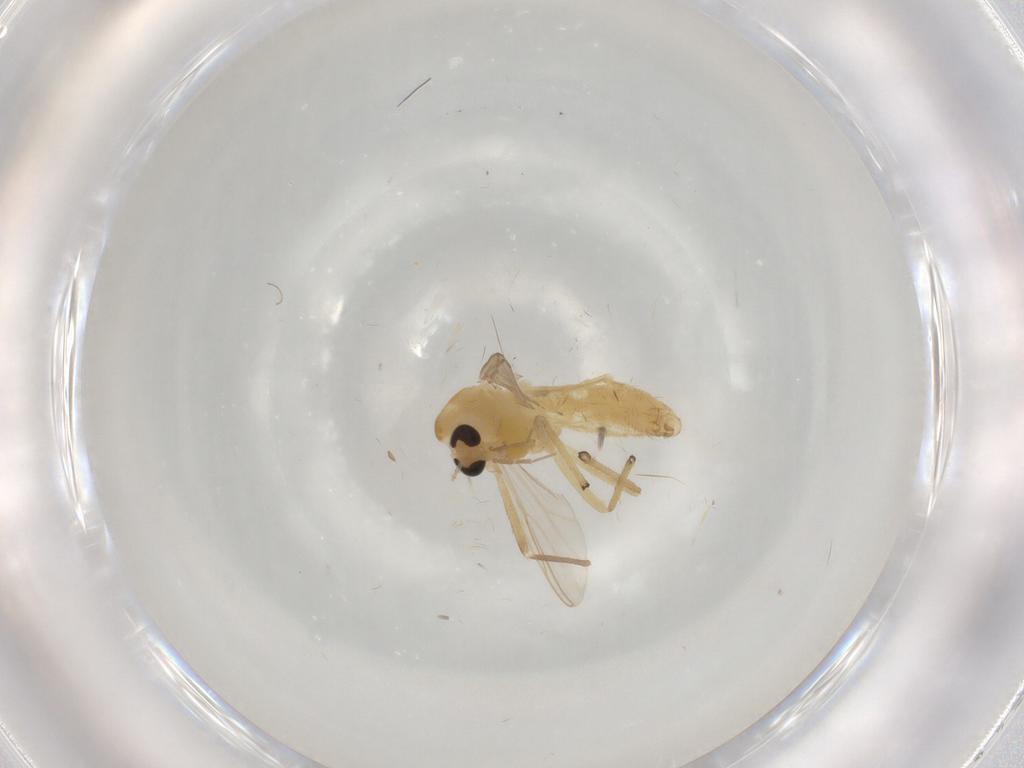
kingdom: Animalia
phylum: Arthropoda
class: Insecta
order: Diptera
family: Chironomidae
